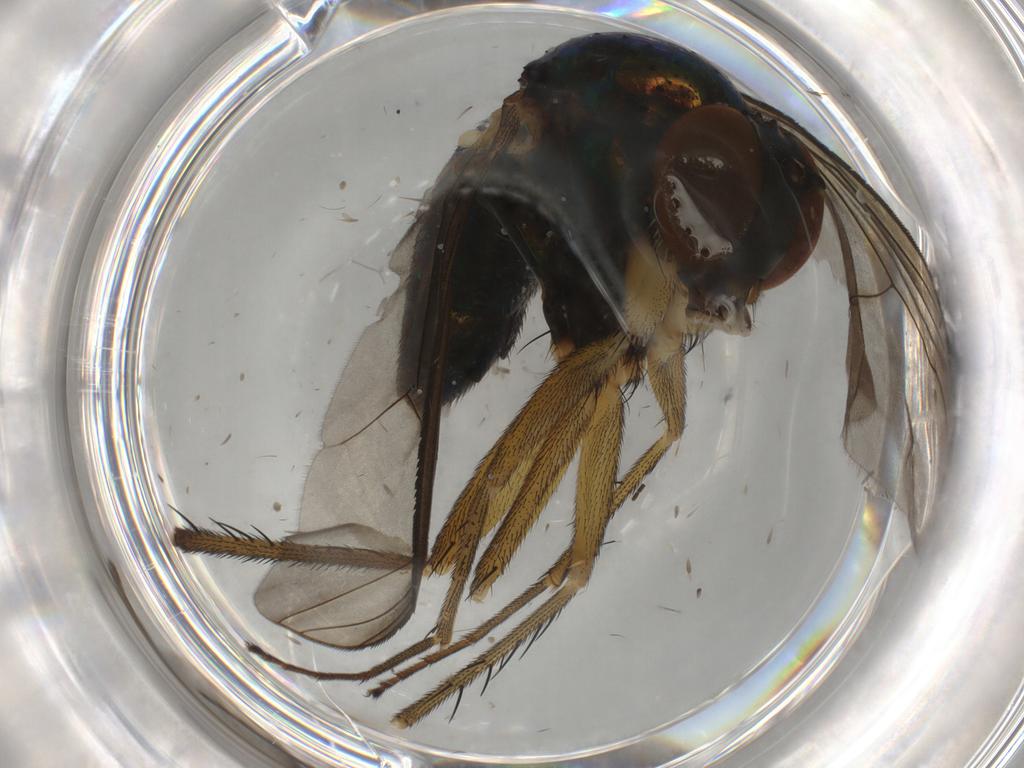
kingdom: Animalia
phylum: Arthropoda
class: Insecta
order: Diptera
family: Dolichopodidae
